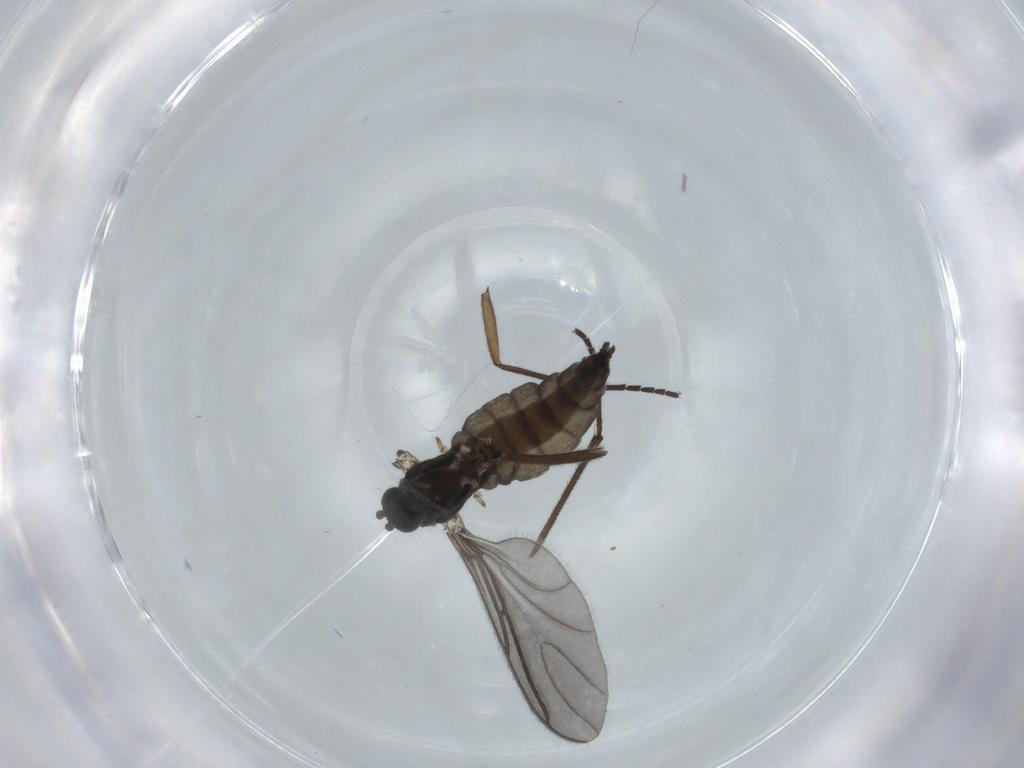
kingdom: Animalia
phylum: Arthropoda
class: Insecta
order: Diptera
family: Sciaridae
